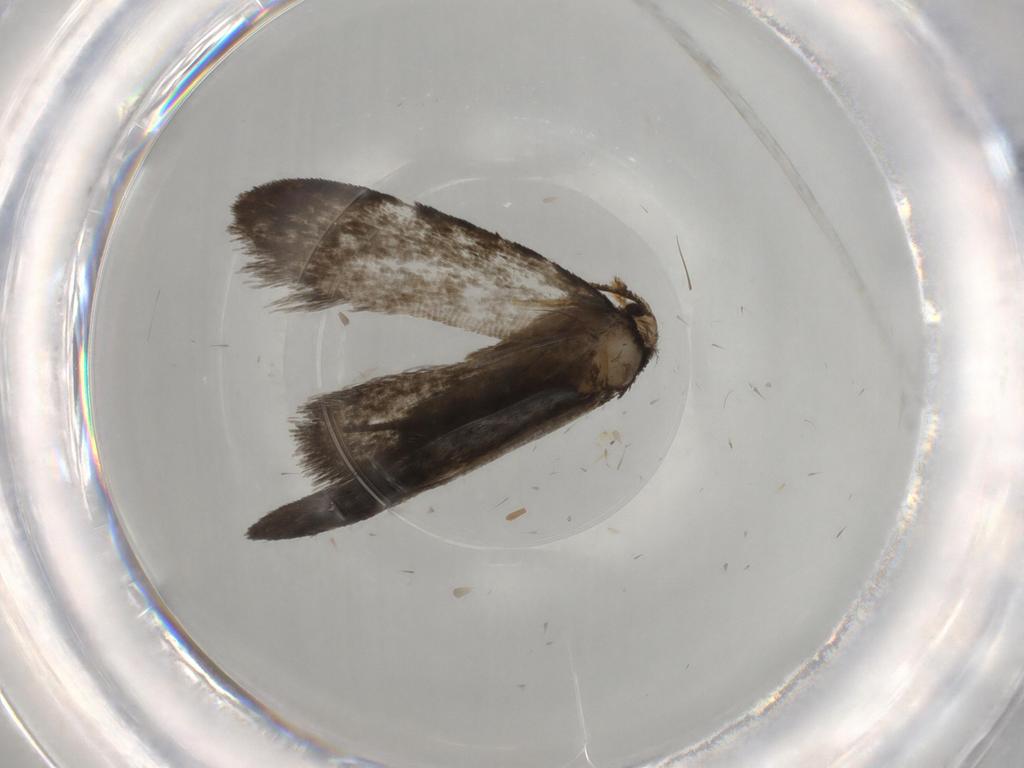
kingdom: Animalia
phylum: Arthropoda
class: Insecta
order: Lepidoptera
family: Psychidae
